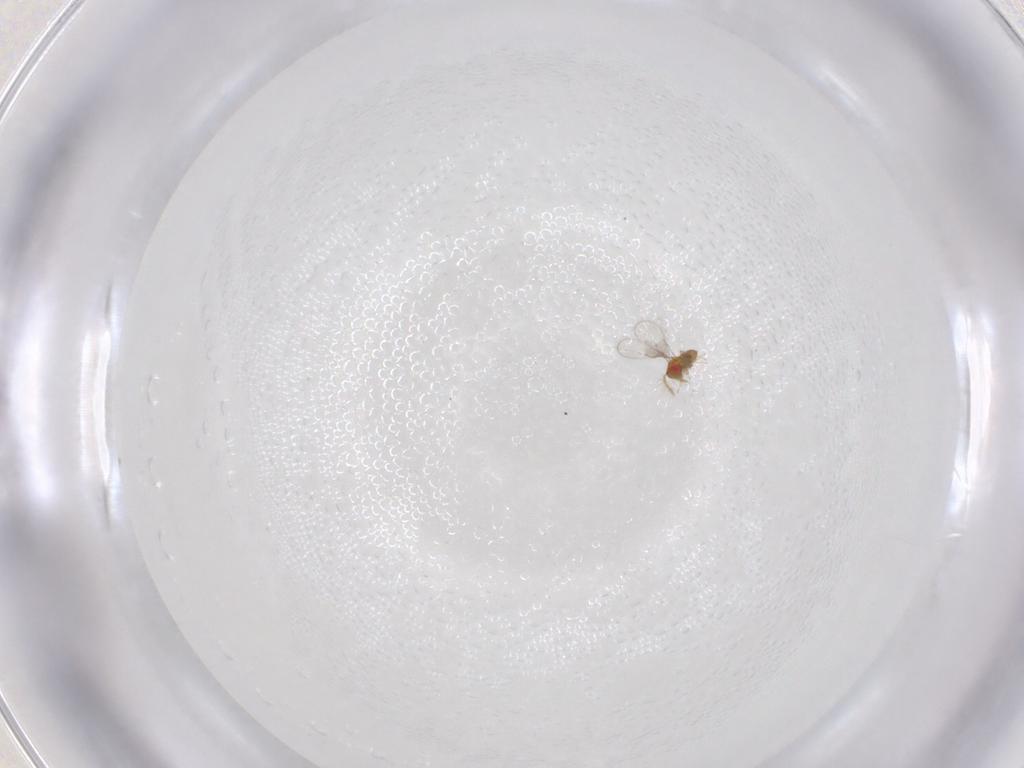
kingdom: Animalia
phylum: Arthropoda
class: Insecta
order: Hymenoptera
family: Trichogrammatidae
